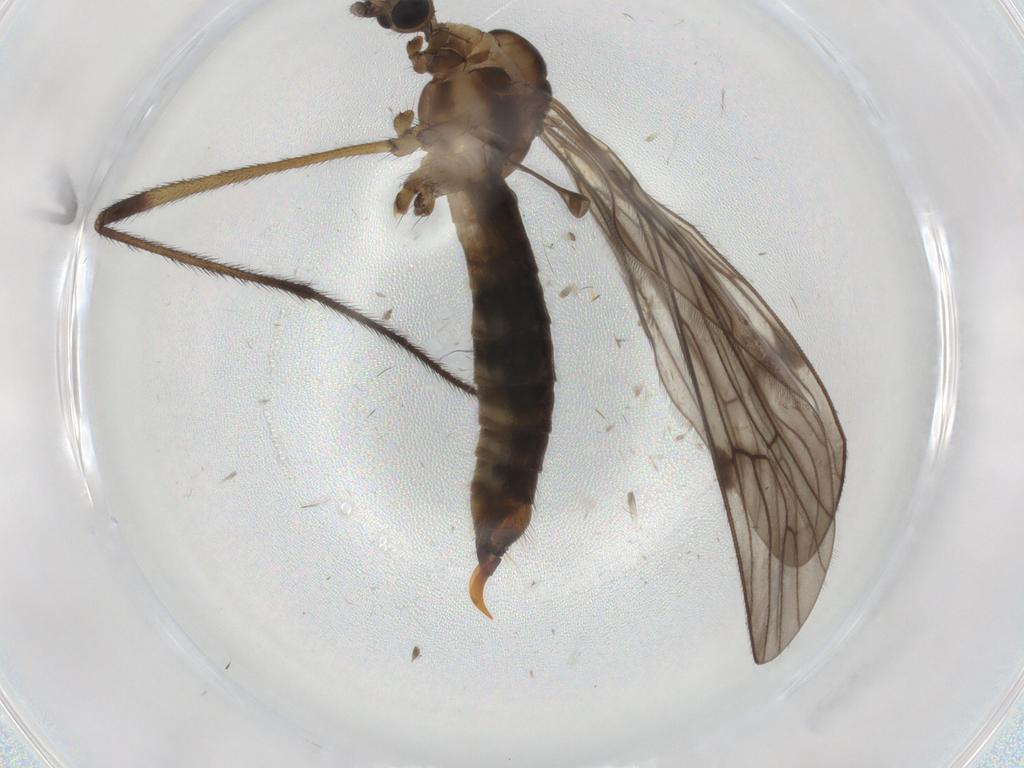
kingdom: Animalia
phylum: Arthropoda
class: Insecta
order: Diptera
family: Limoniidae
